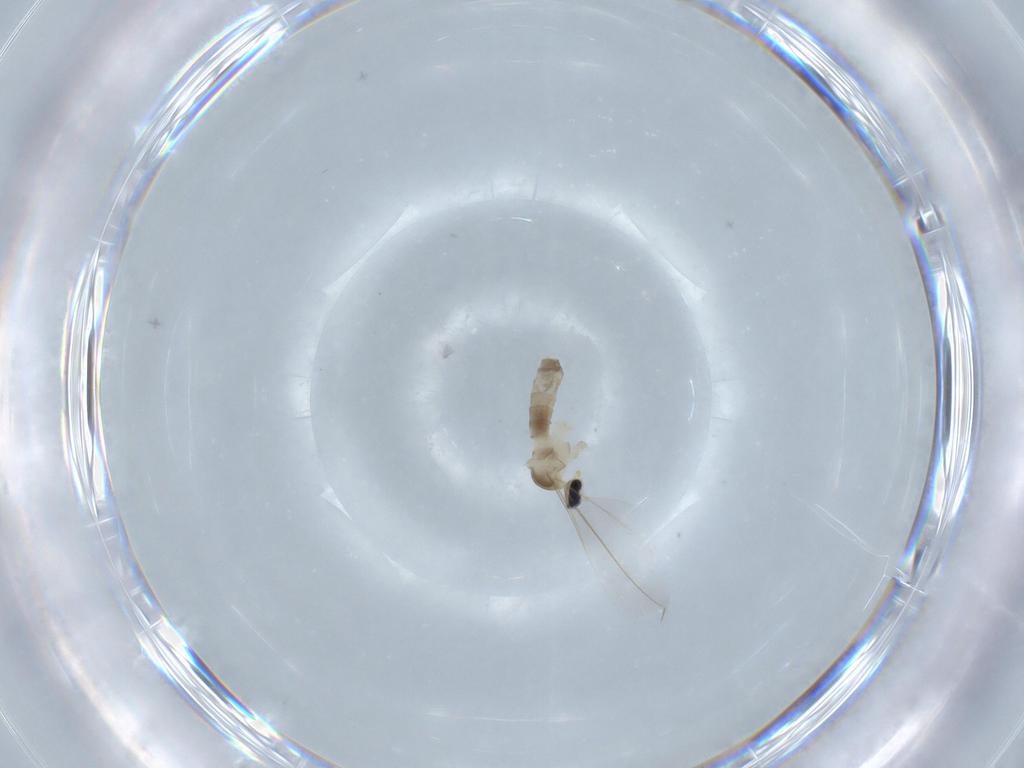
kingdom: Animalia
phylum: Arthropoda
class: Insecta
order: Diptera
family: Cecidomyiidae
